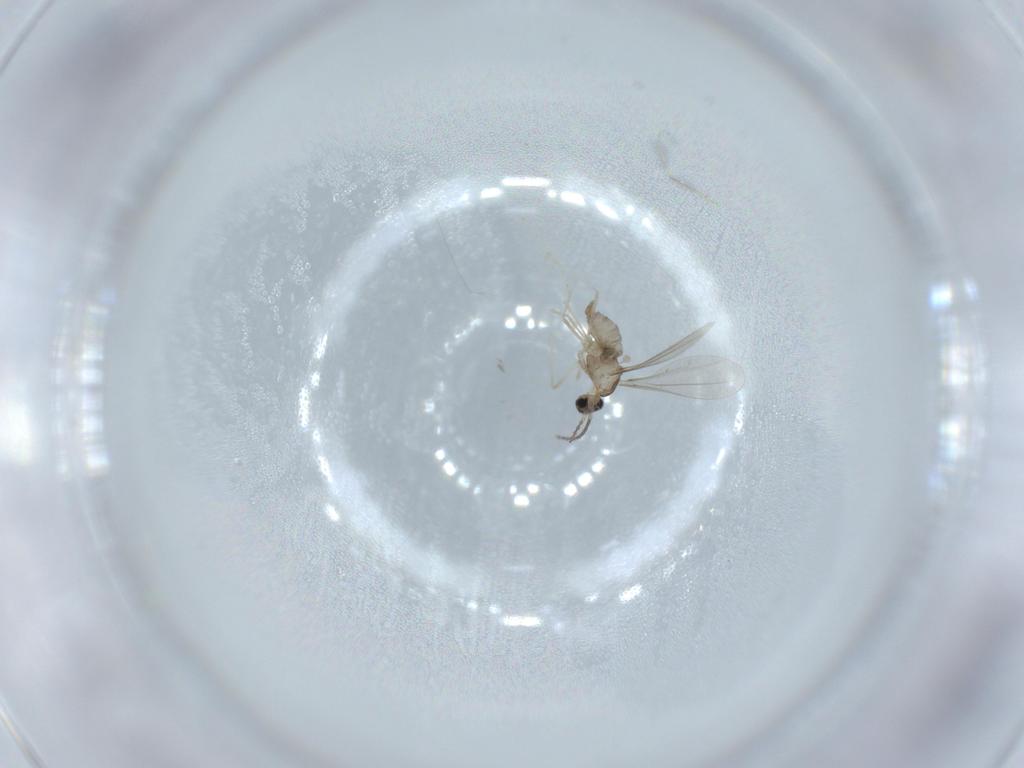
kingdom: Animalia
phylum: Arthropoda
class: Insecta
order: Diptera
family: Cecidomyiidae
